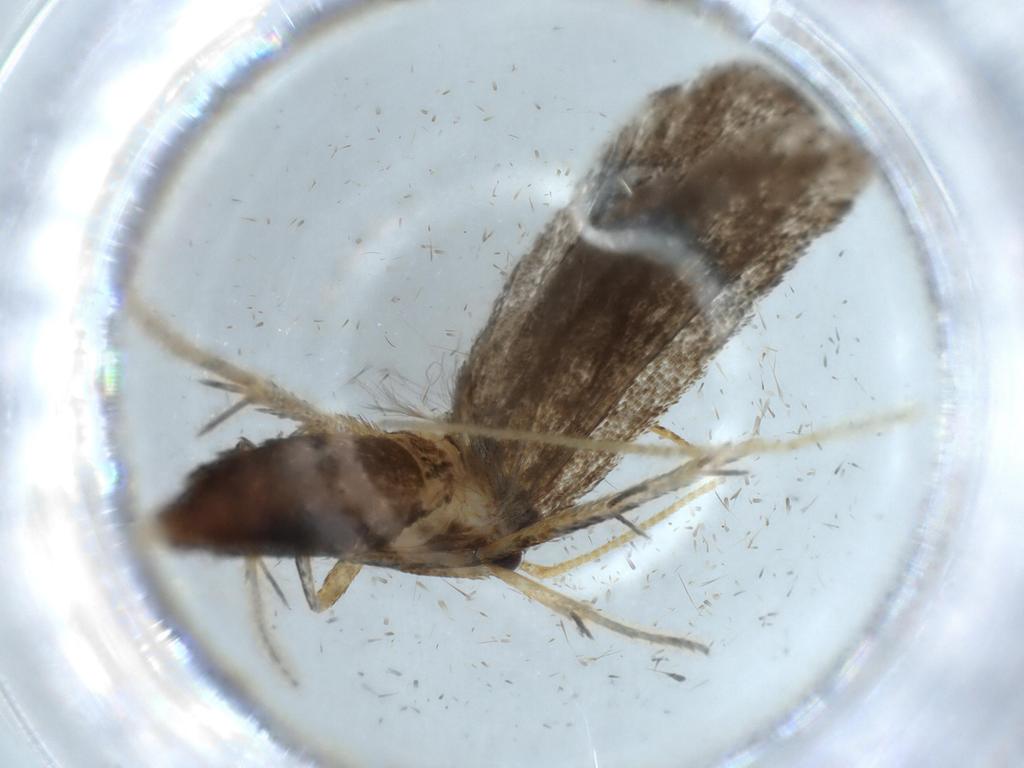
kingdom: Animalia
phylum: Arthropoda
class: Insecta
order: Lepidoptera
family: Lecithoceridae
